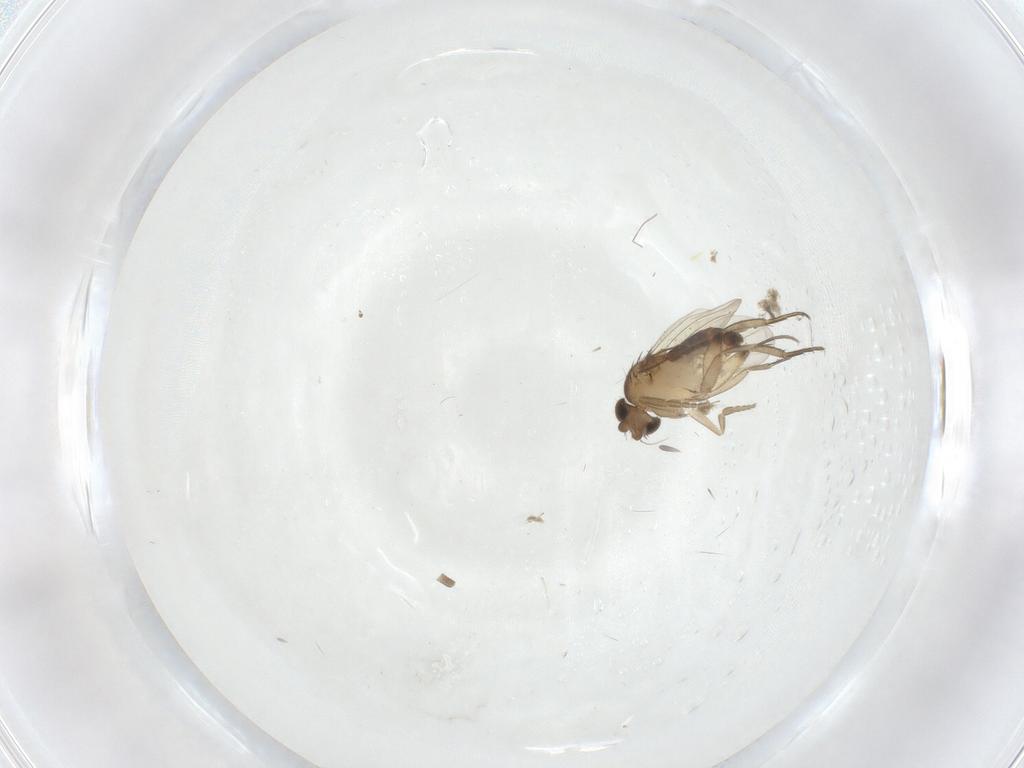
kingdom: Animalia
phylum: Arthropoda
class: Insecta
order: Diptera
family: Phoridae
